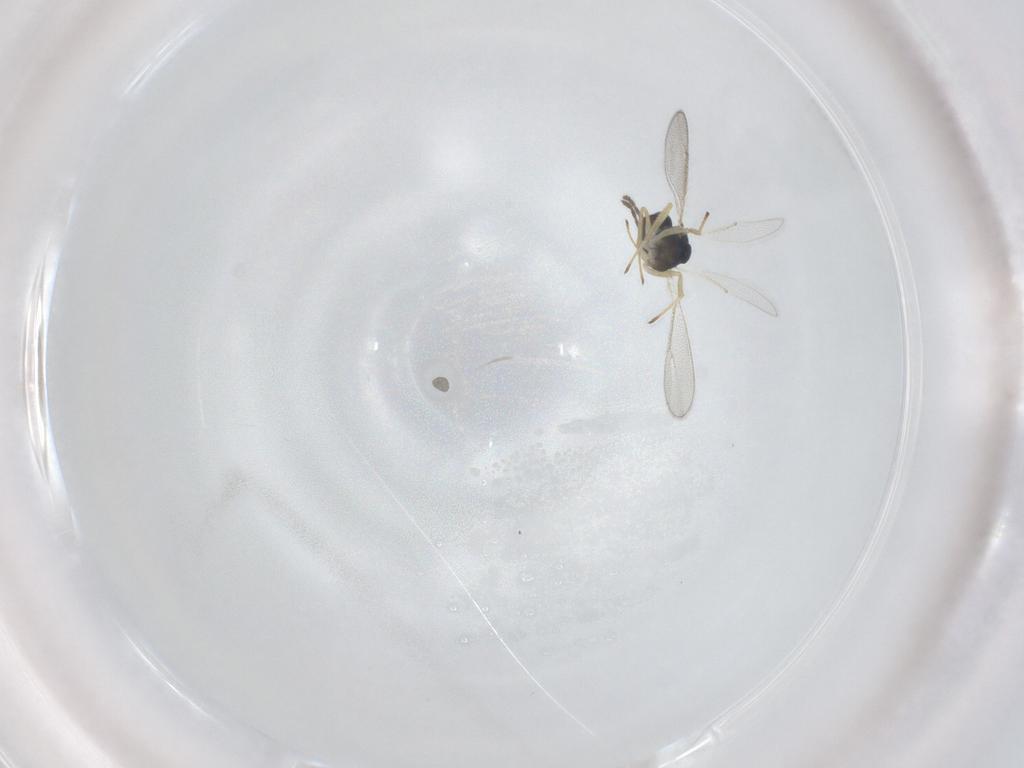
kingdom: Animalia
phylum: Arthropoda
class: Insecta
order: Hymenoptera
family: Eulophidae
